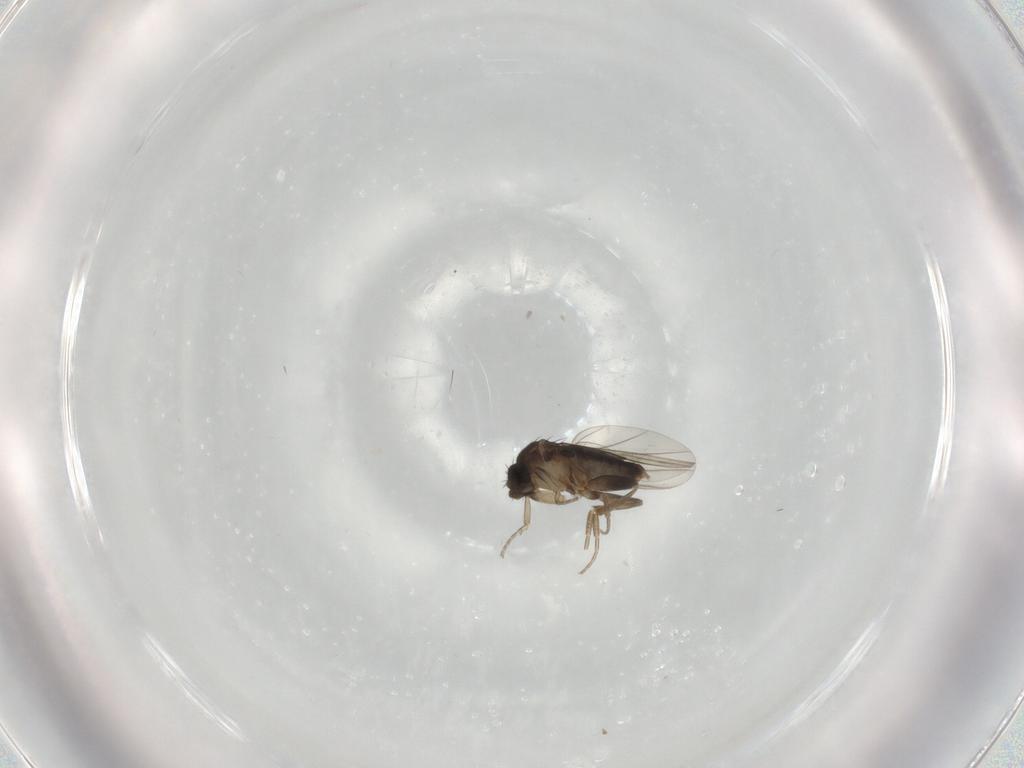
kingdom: Animalia
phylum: Arthropoda
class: Insecta
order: Diptera
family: Phoridae
